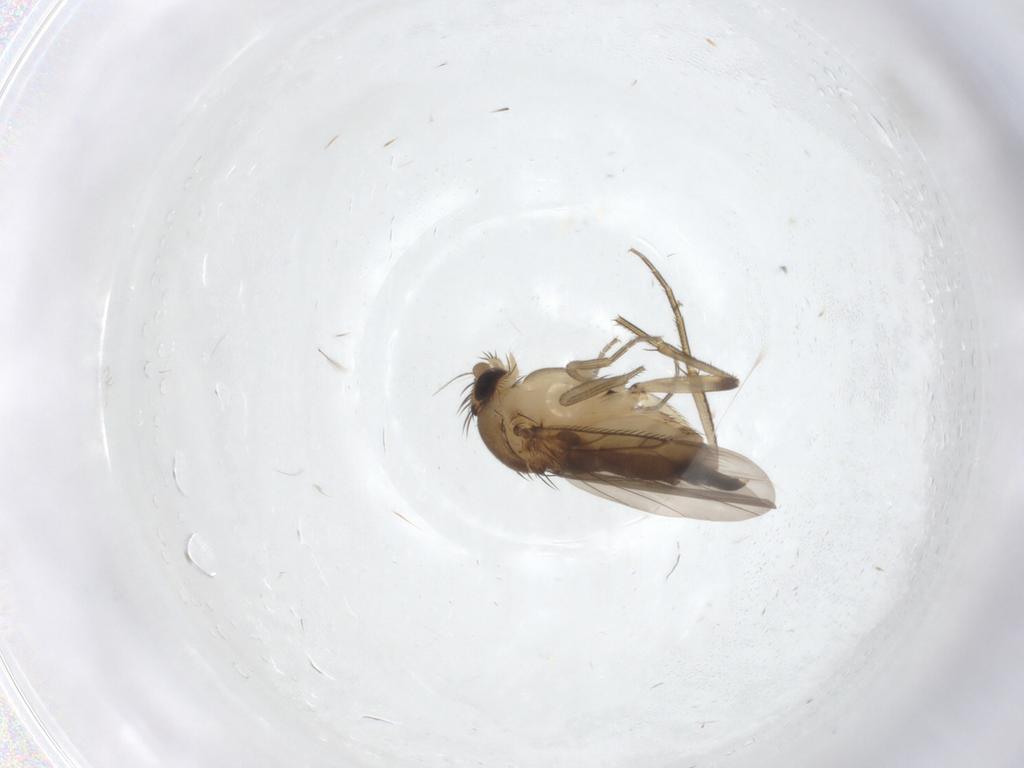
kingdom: Animalia
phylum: Arthropoda
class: Insecta
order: Diptera
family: Phoridae
